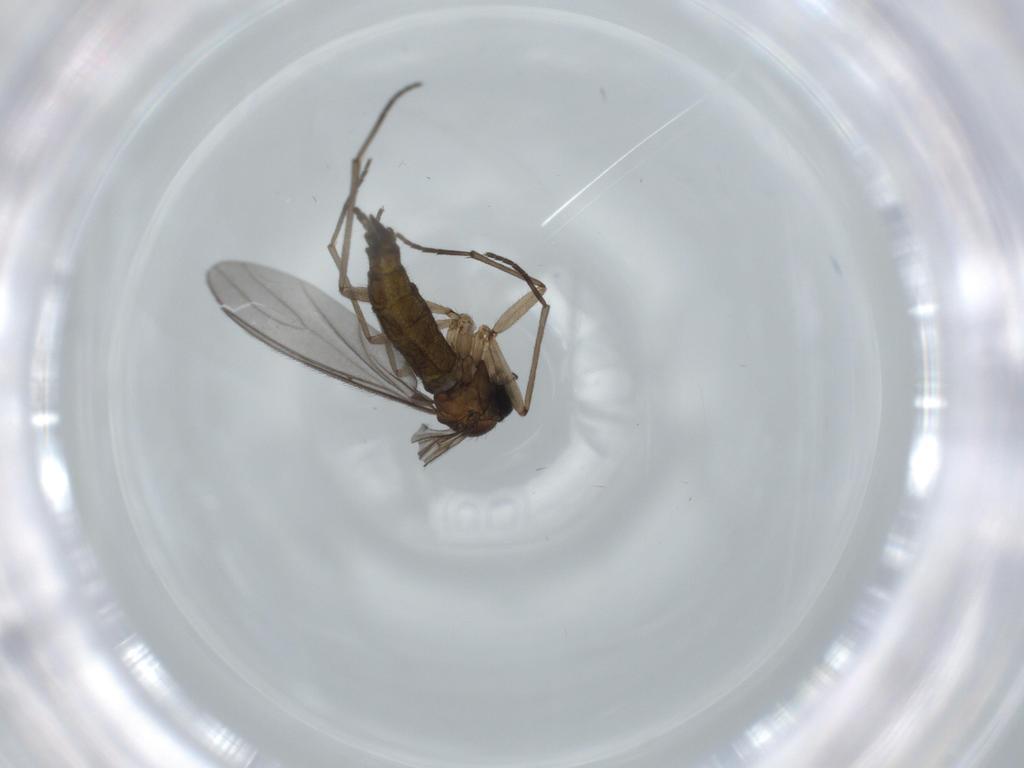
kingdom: Animalia
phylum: Arthropoda
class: Insecta
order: Diptera
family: Sciaridae
